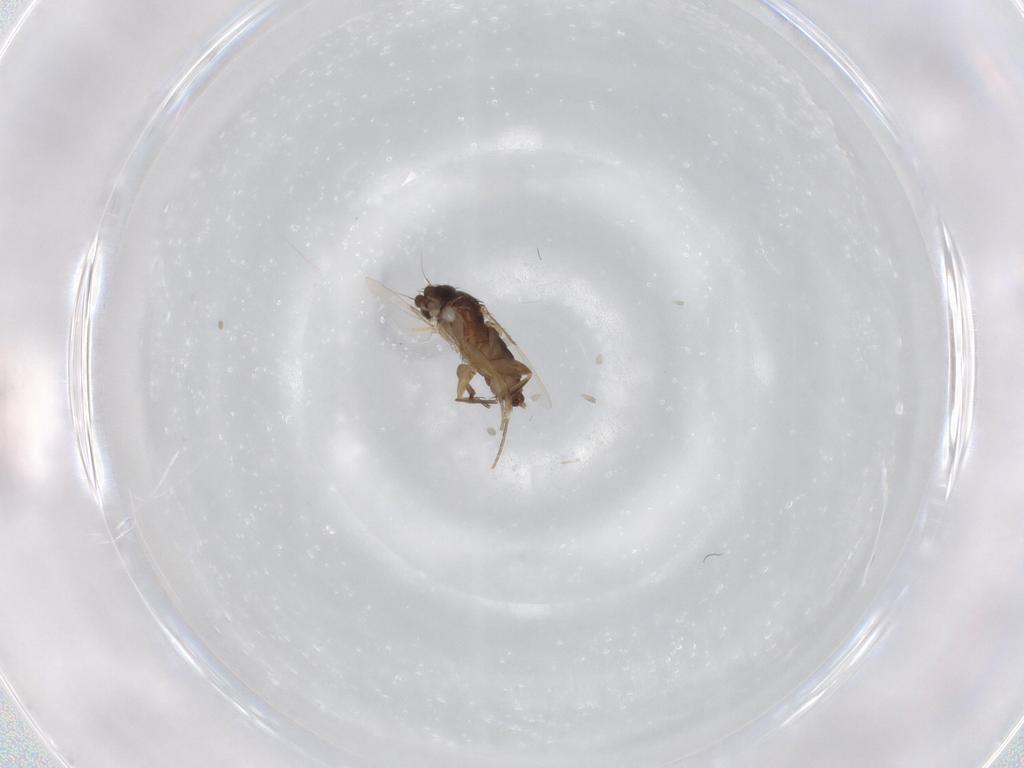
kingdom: Animalia
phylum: Arthropoda
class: Insecta
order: Diptera
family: Phoridae
